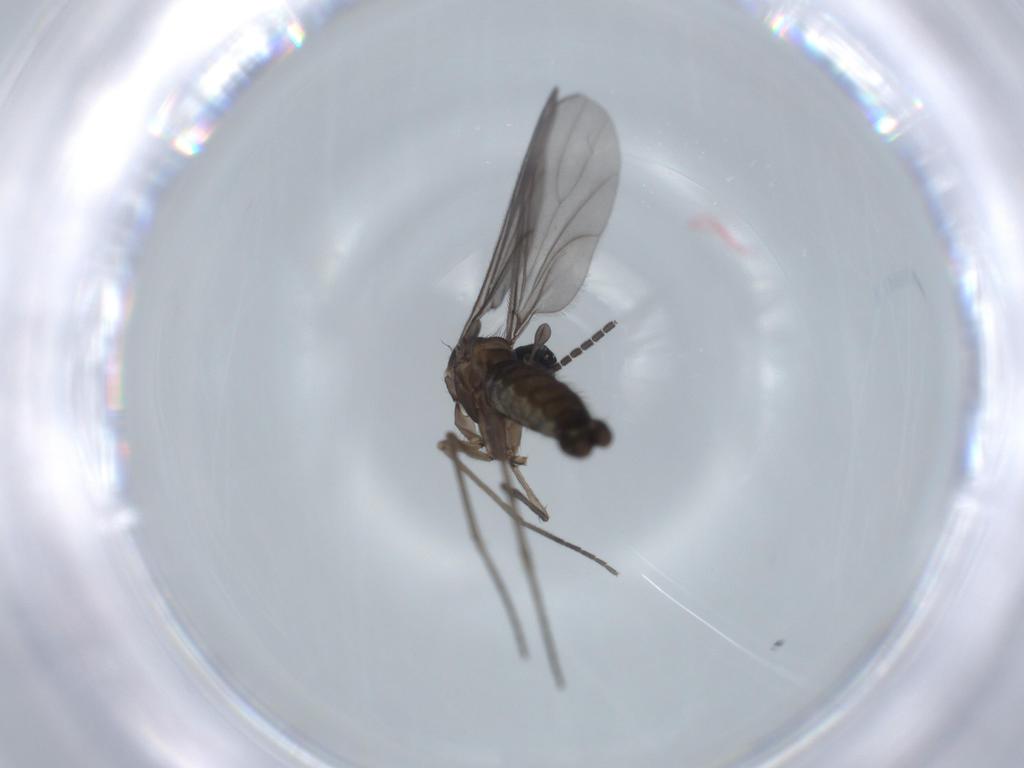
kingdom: Animalia
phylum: Arthropoda
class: Insecta
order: Diptera
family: Sciaridae
